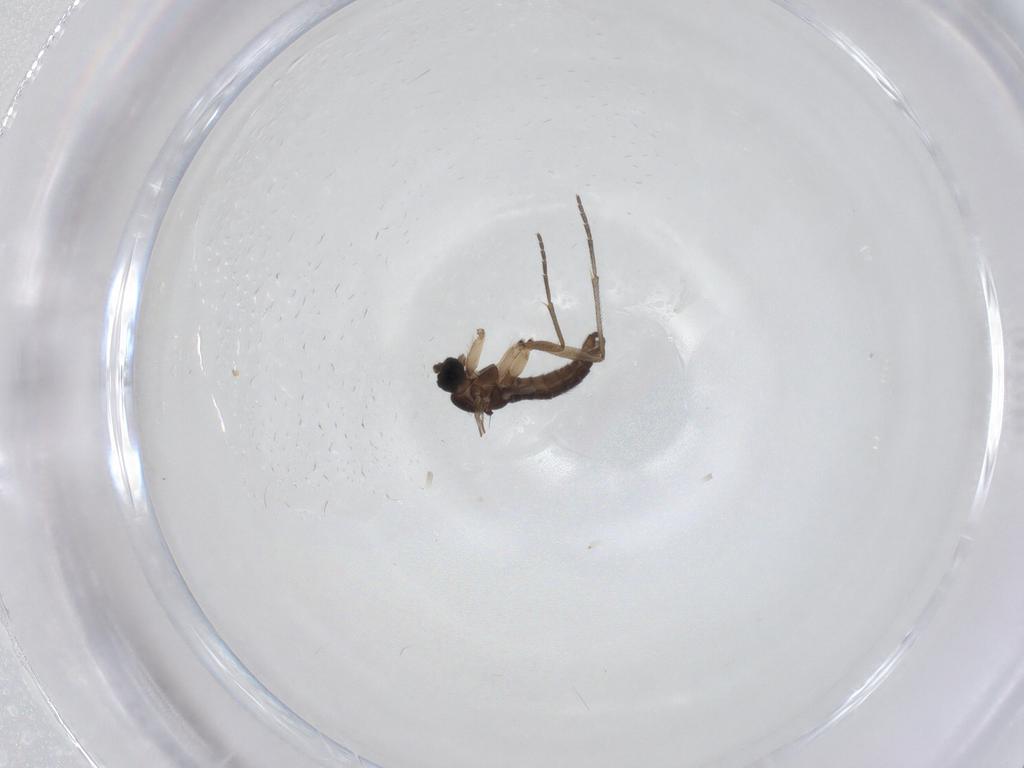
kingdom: Animalia
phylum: Arthropoda
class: Insecta
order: Diptera
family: Sciaridae
